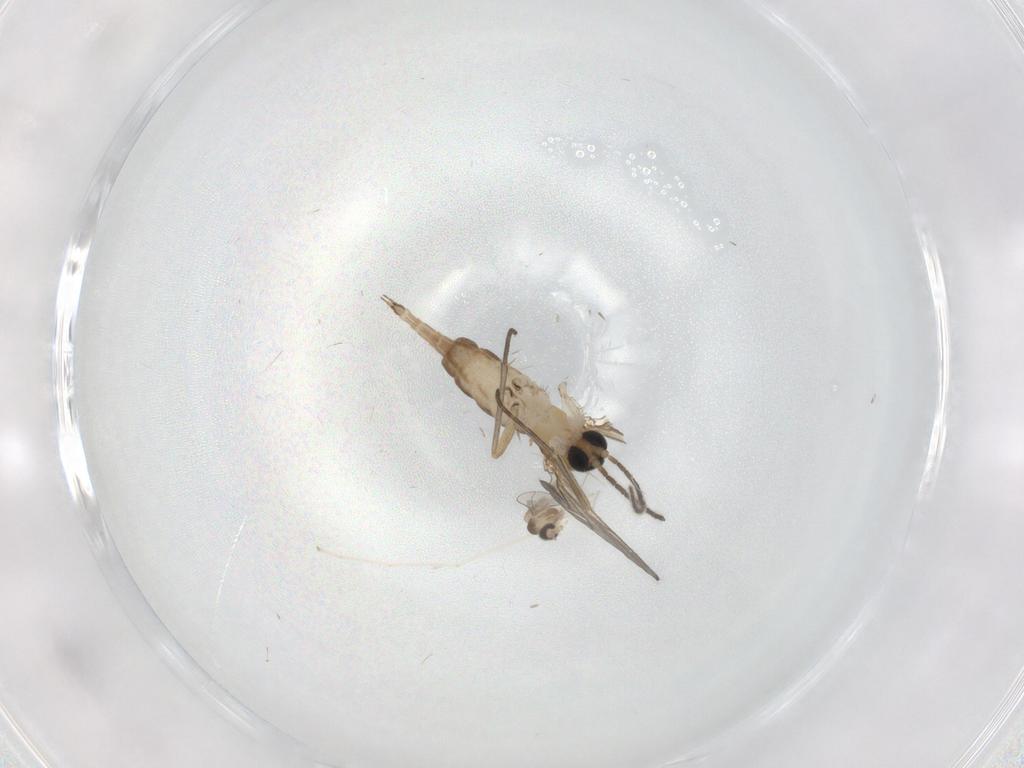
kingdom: Animalia
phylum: Arthropoda
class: Insecta
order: Diptera
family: Cecidomyiidae
